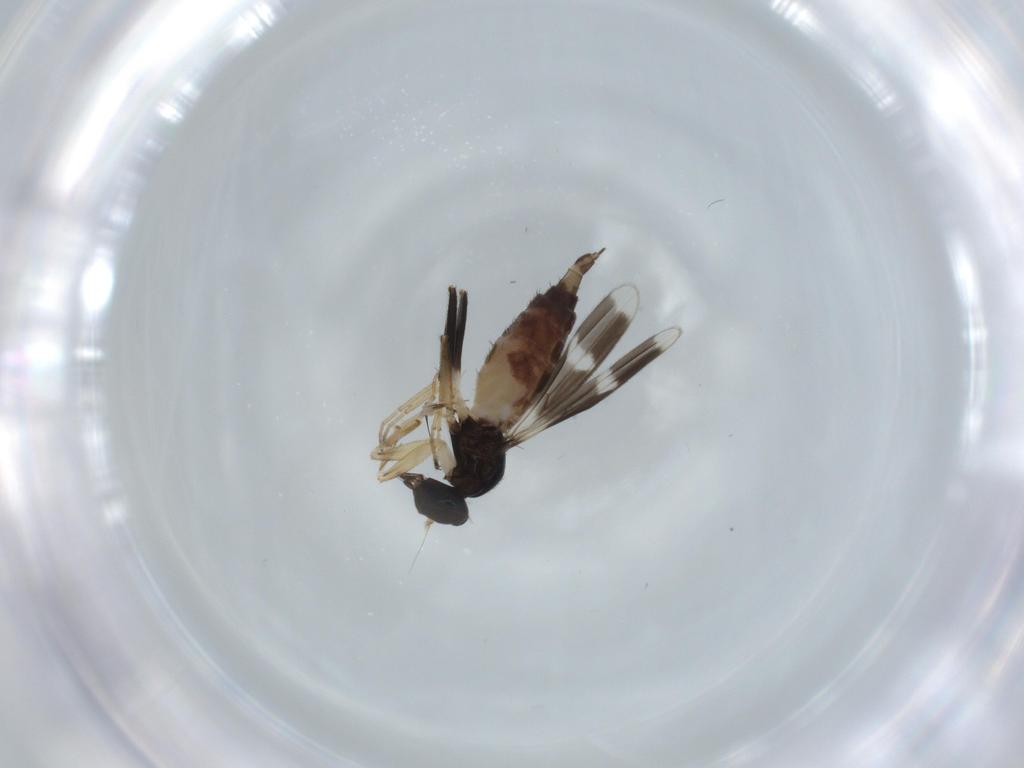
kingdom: Animalia
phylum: Arthropoda
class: Insecta
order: Diptera
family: Hybotidae
